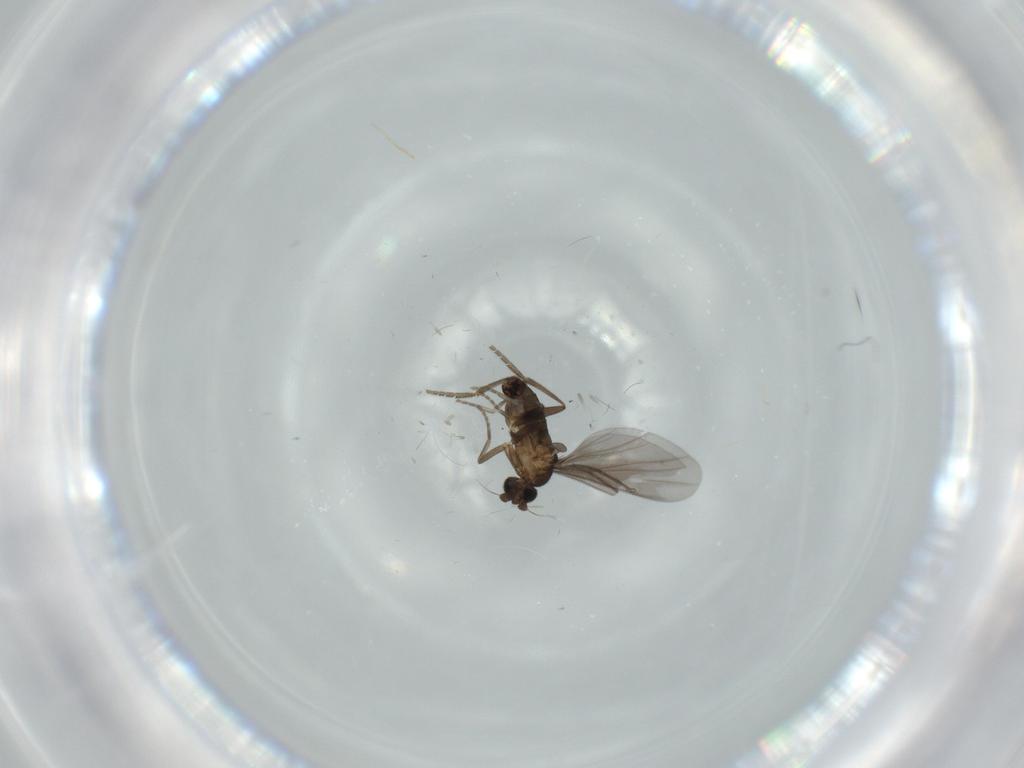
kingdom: Animalia
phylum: Arthropoda
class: Insecta
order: Diptera
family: Phoridae
